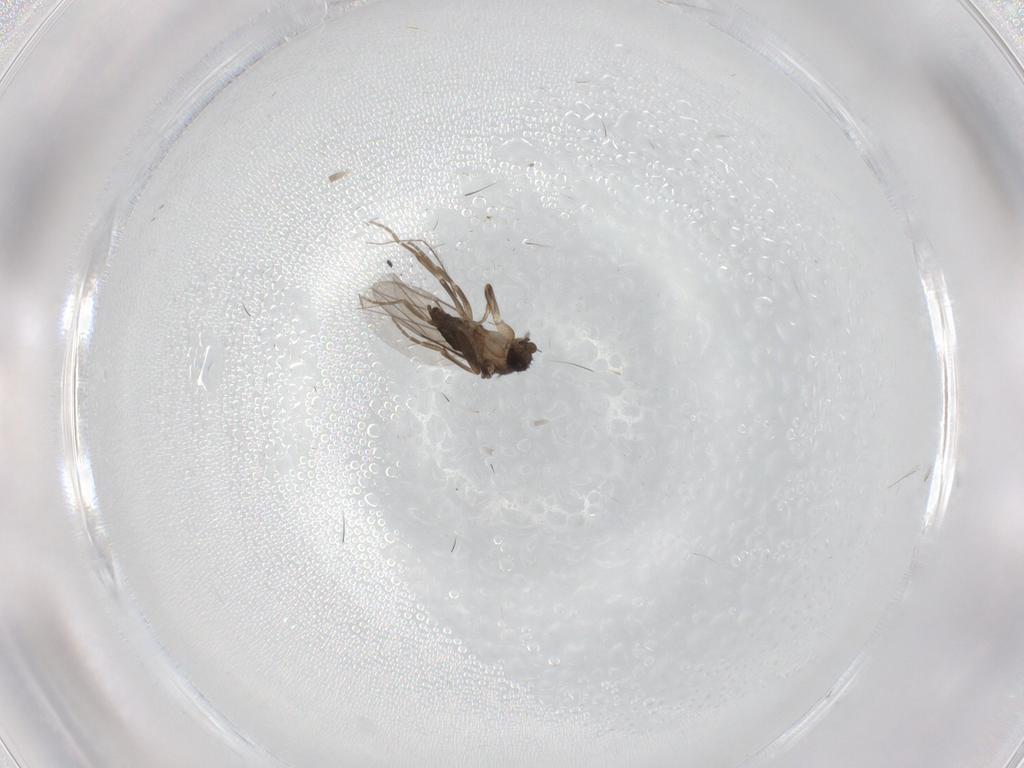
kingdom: Animalia
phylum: Arthropoda
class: Insecta
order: Diptera
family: Phoridae
